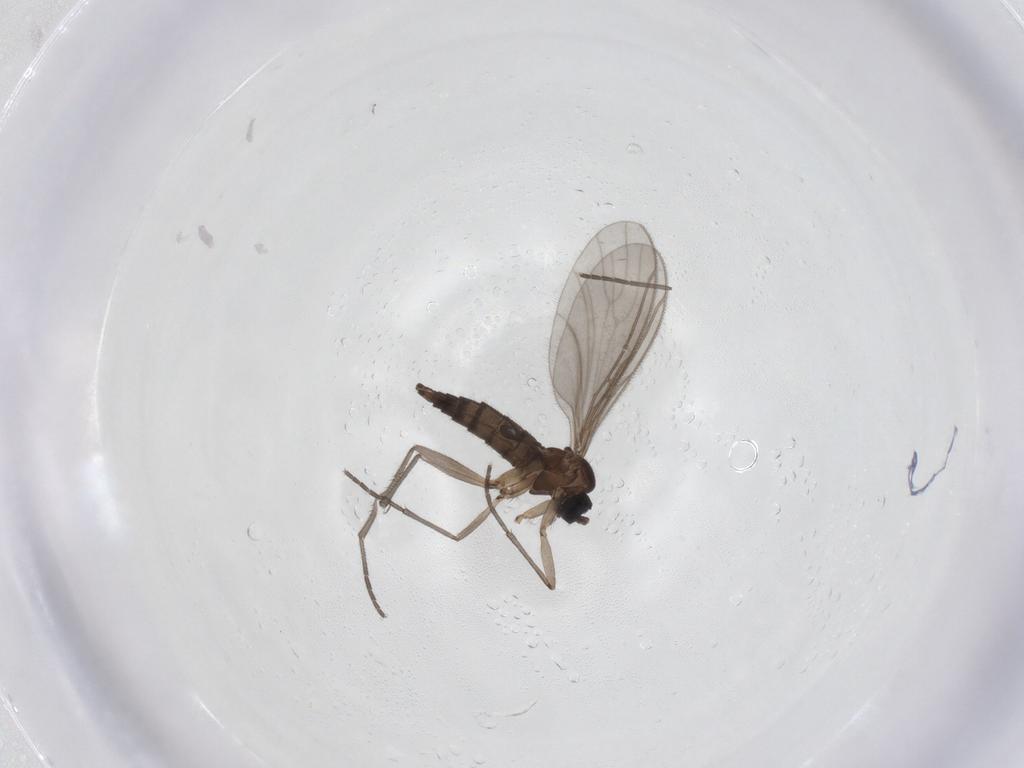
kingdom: Animalia
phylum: Arthropoda
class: Insecta
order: Diptera
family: Sciaridae
